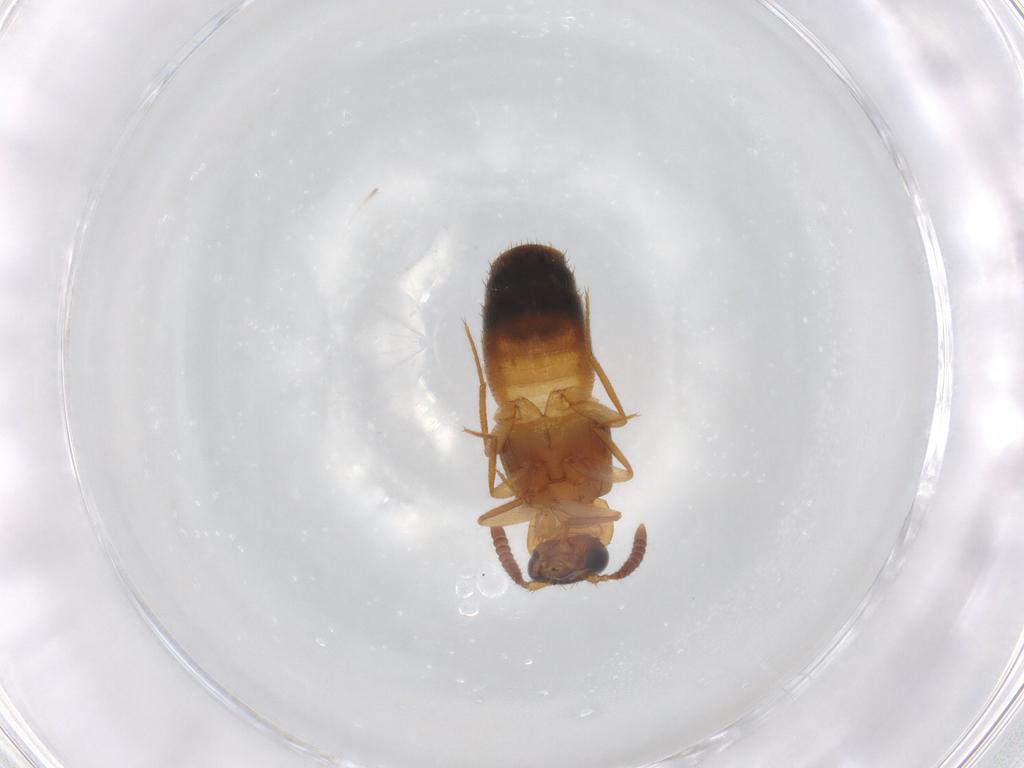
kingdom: Animalia
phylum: Arthropoda
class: Insecta
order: Coleoptera
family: Staphylinidae
